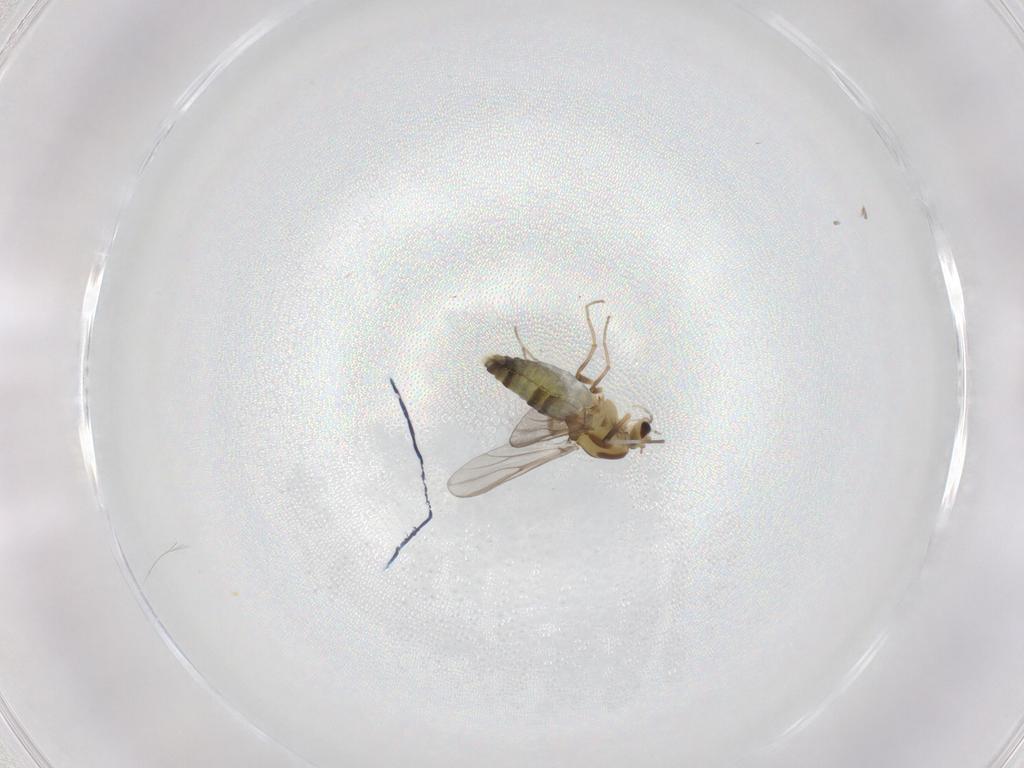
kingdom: Animalia
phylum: Arthropoda
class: Insecta
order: Diptera
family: Chironomidae
